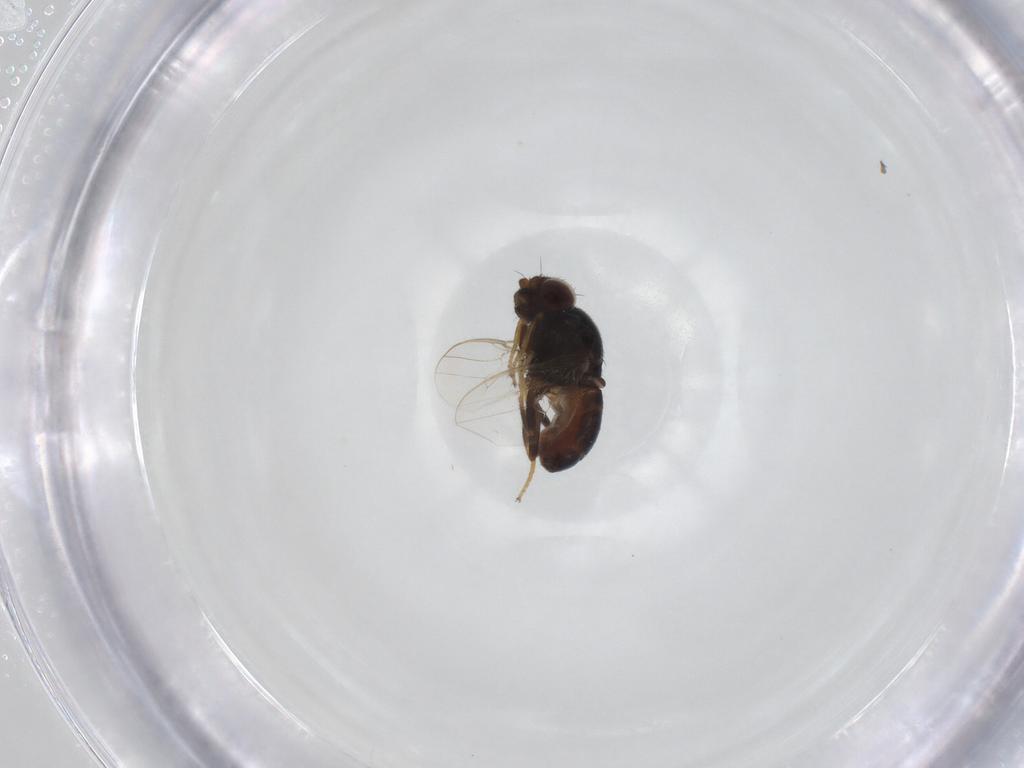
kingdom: Animalia
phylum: Arthropoda
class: Insecta
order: Diptera
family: Chloropidae
